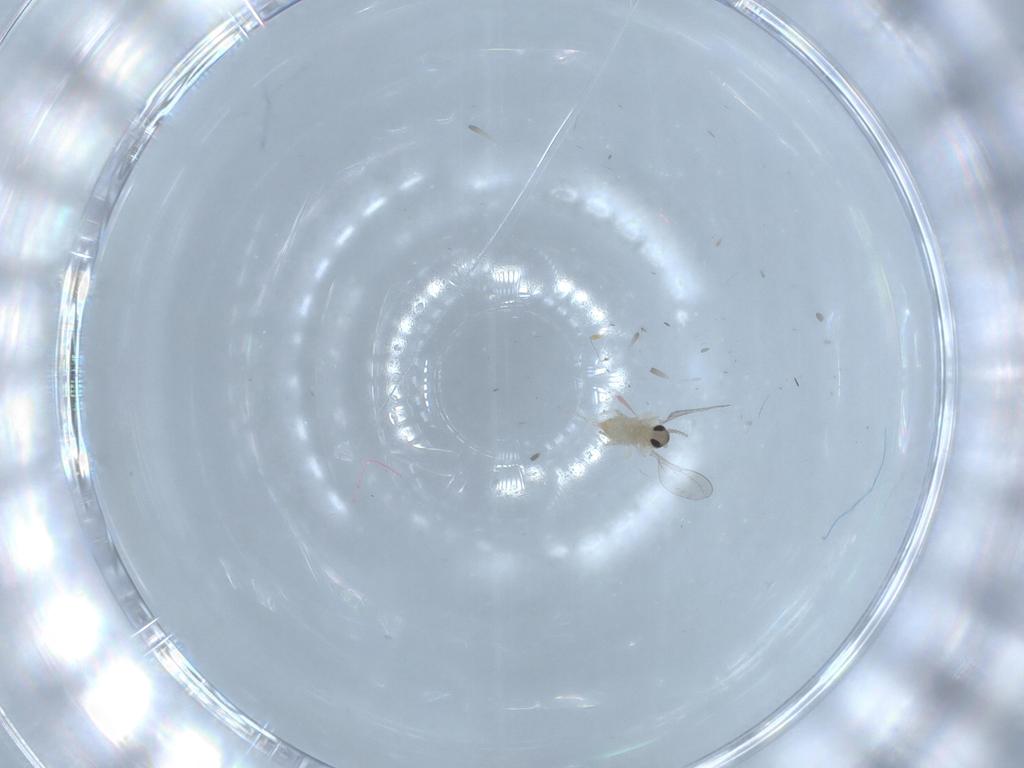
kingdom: Animalia
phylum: Arthropoda
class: Insecta
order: Diptera
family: Cecidomyiidae
